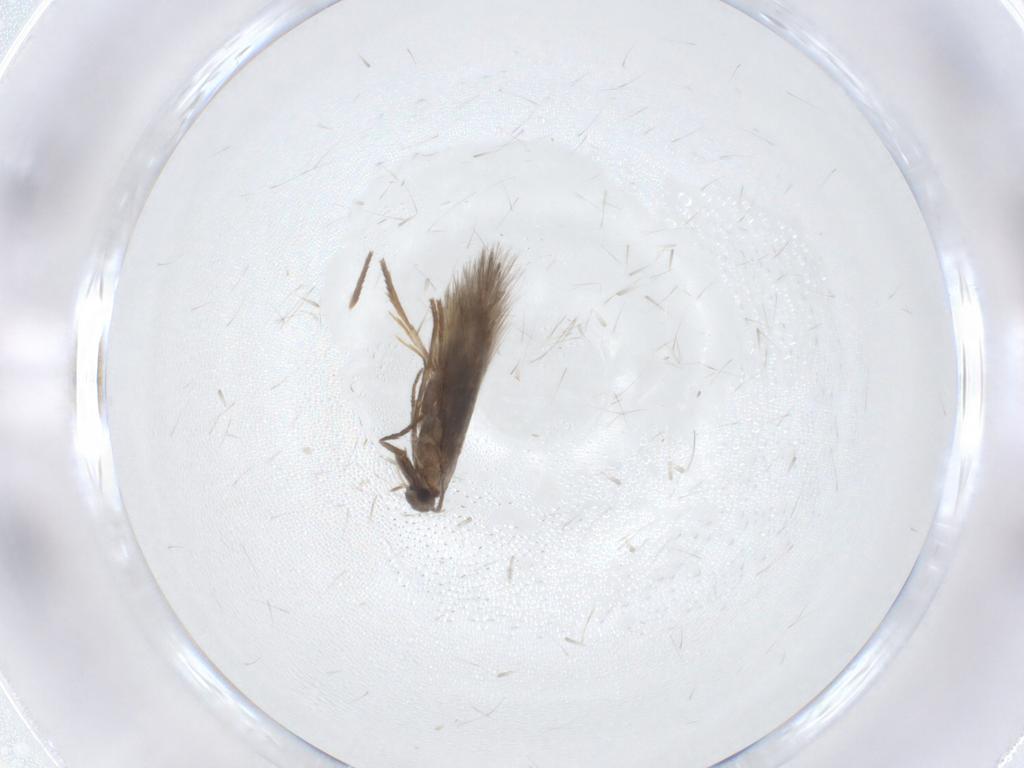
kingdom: Animalia
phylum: Arthropoda
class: Insecta
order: Lepidoptera
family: Heliozelidae
